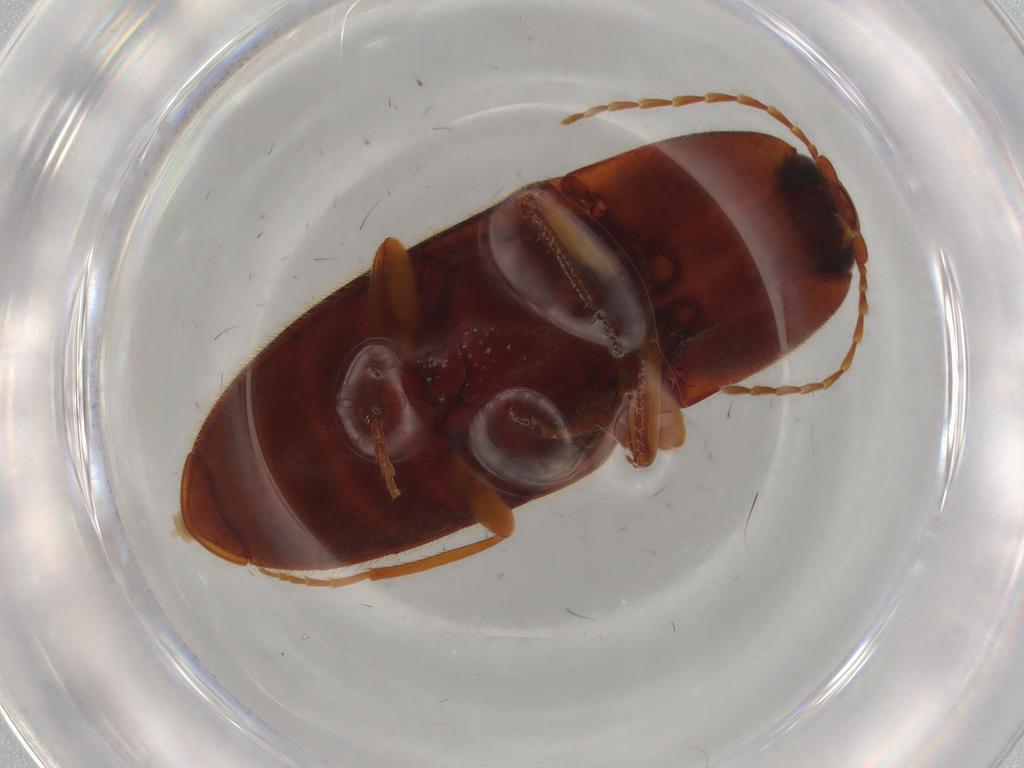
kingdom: Animalia
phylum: Arthropoda
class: Insecta
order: Coleoptera
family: Elateridae
